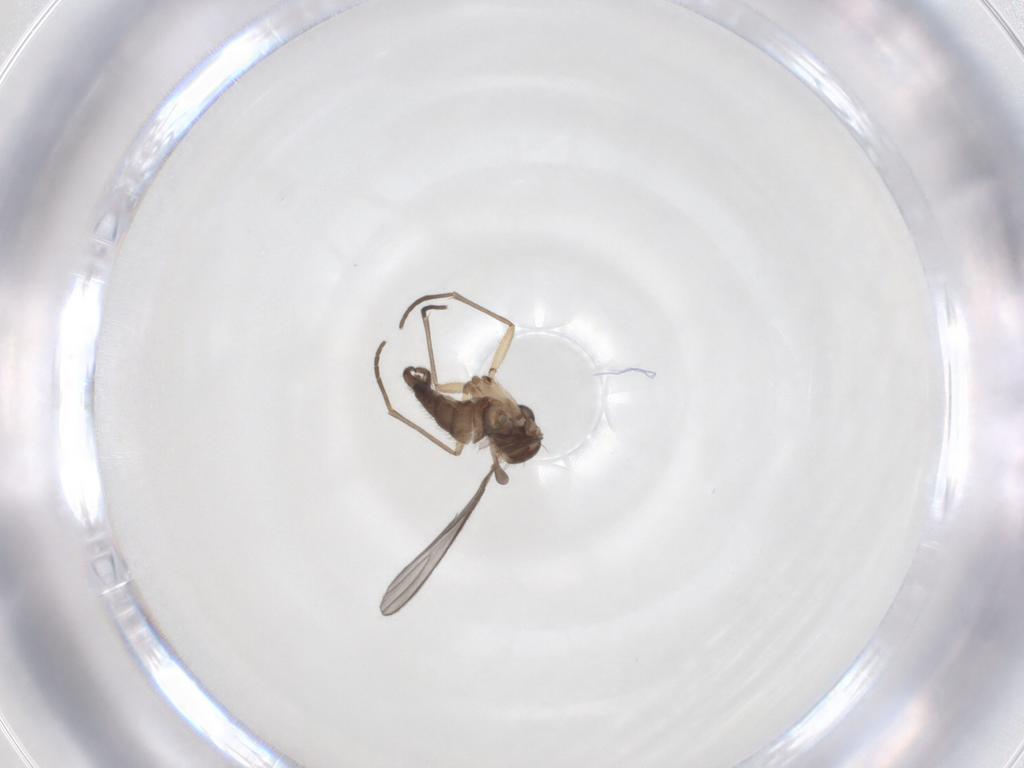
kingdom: Animalia
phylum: Arthropoda
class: Insecta
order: Diptera
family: Sciaridae
